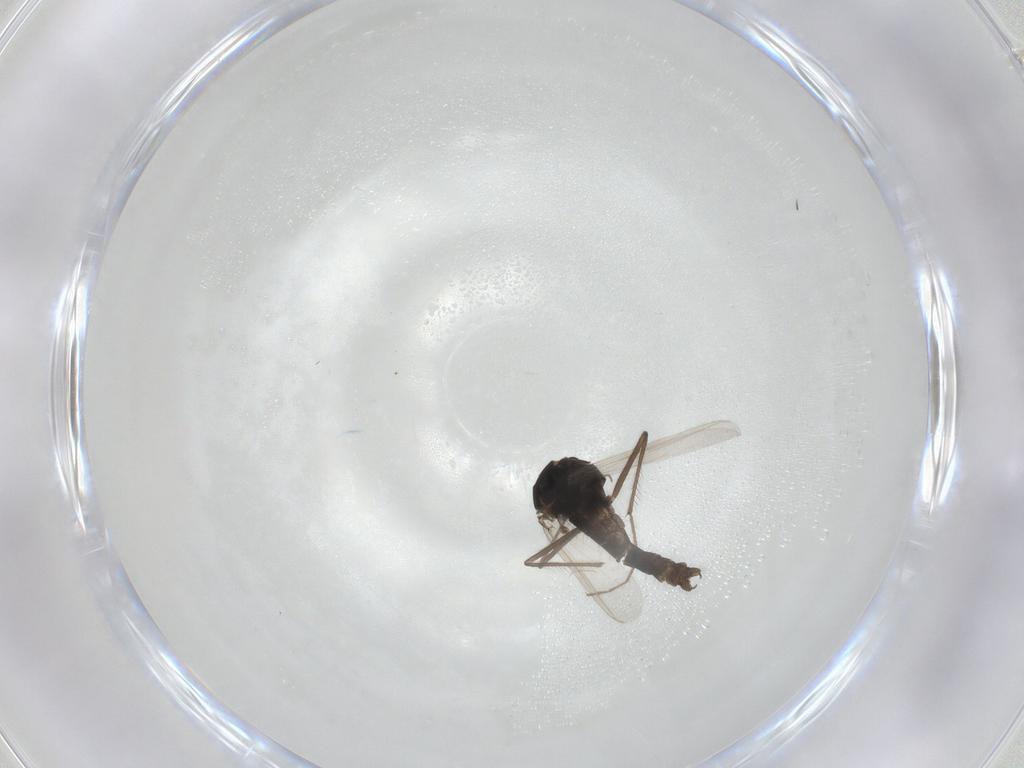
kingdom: Animalia
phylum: Arthropoda
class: Insecta
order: Diptera
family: Chironomidae
